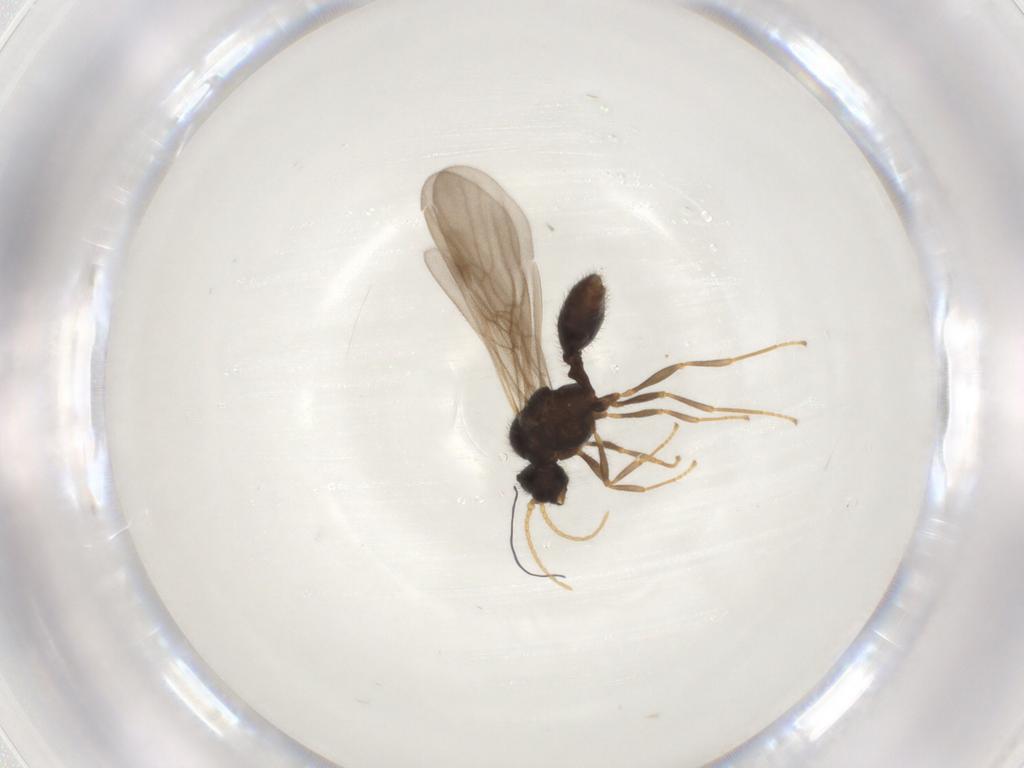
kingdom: Animalia
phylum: Arthropoda
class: Insecta
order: Hymenoptera
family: Formicidae
